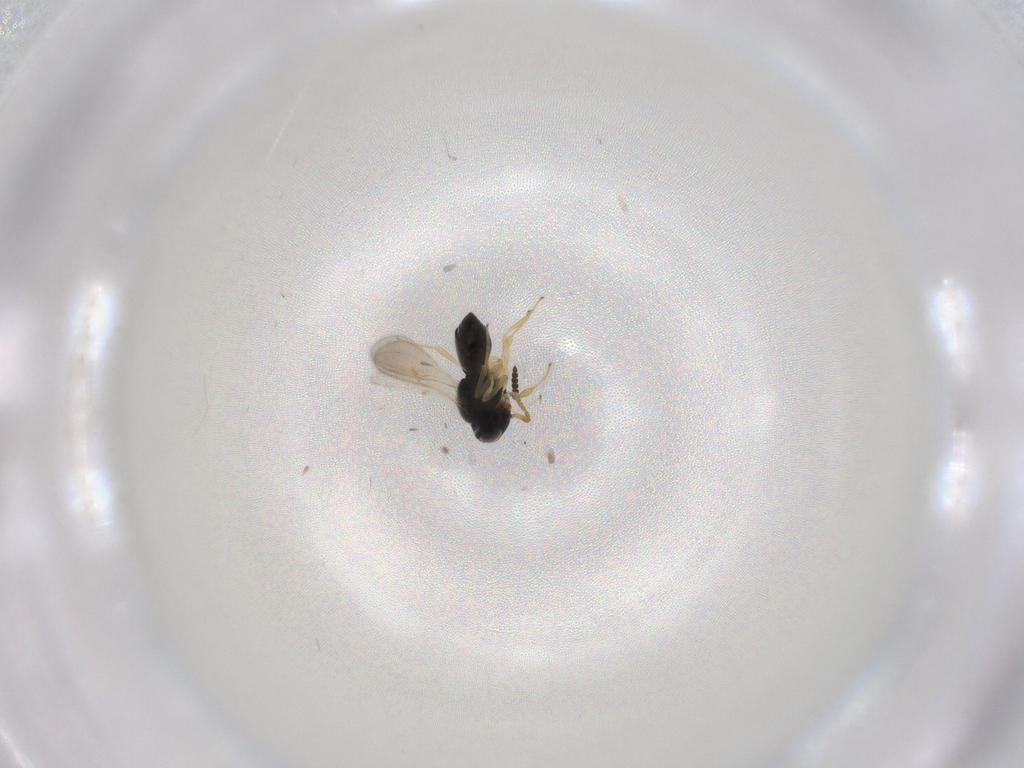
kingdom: Animalia
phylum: Arthropoda
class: Insecta
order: Hymenoptera
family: Scelionidae
